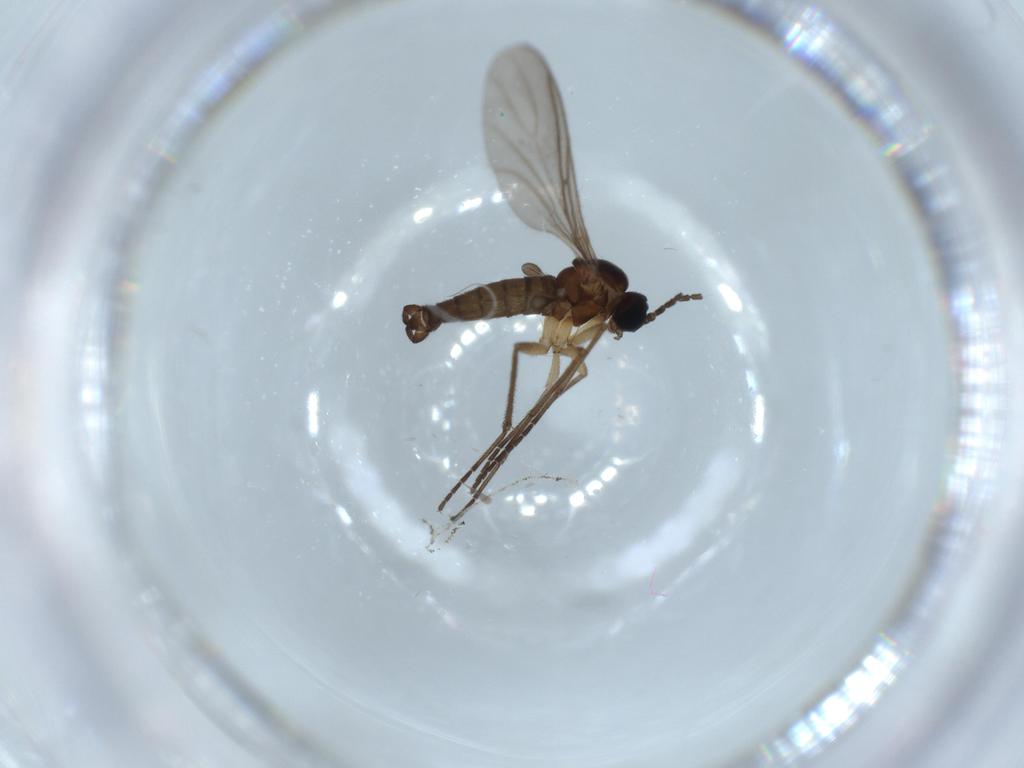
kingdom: Animalia
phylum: Arthropoda
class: Insecta
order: Diptera
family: Sciaridae
